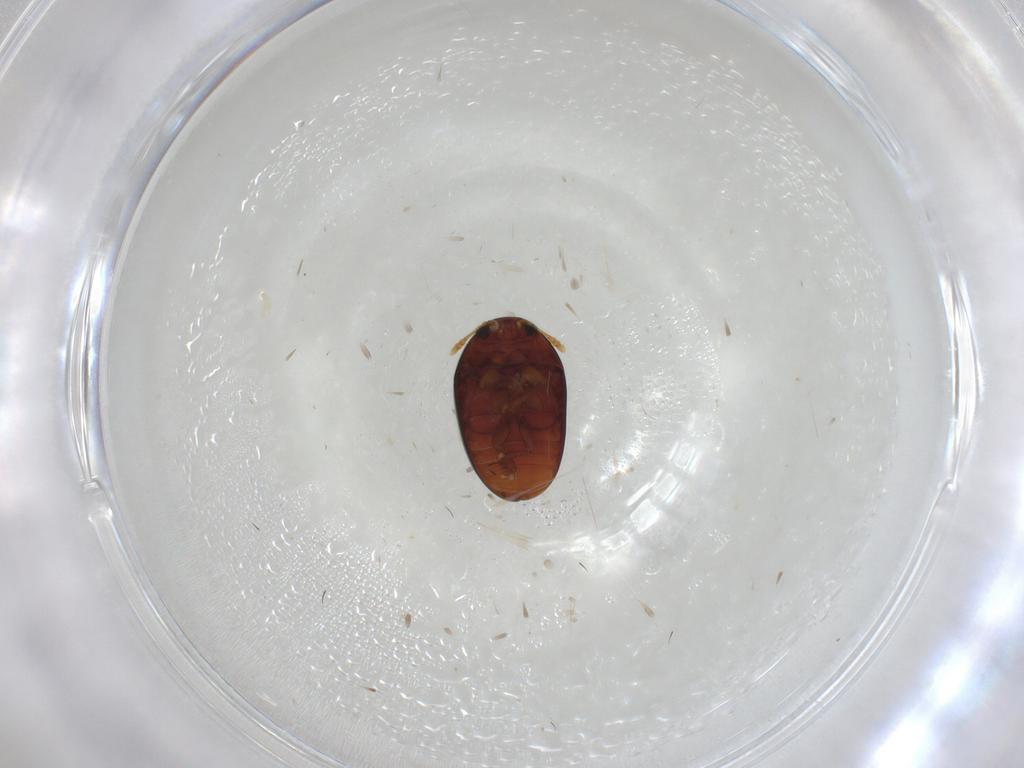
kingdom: Animalia
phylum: Arthropoda
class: Insecta
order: Coleoptera
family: Phalacridae
